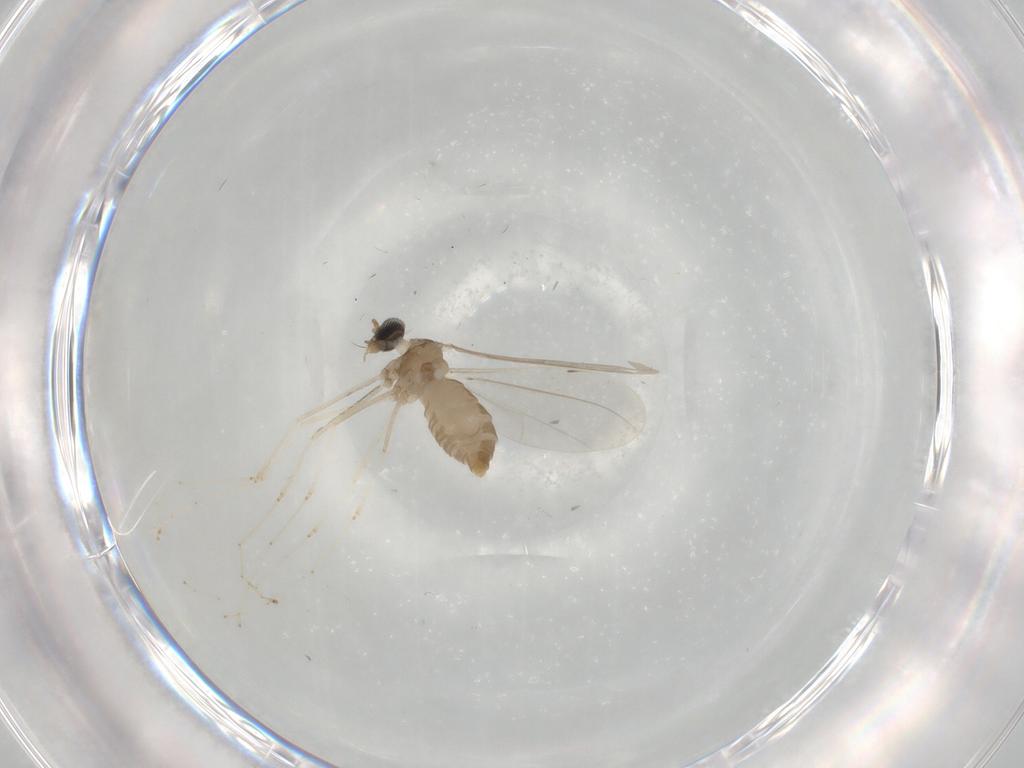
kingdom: Animalia
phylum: Arthropoda
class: Insecta
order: Diptera
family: Cecidomyiidae
